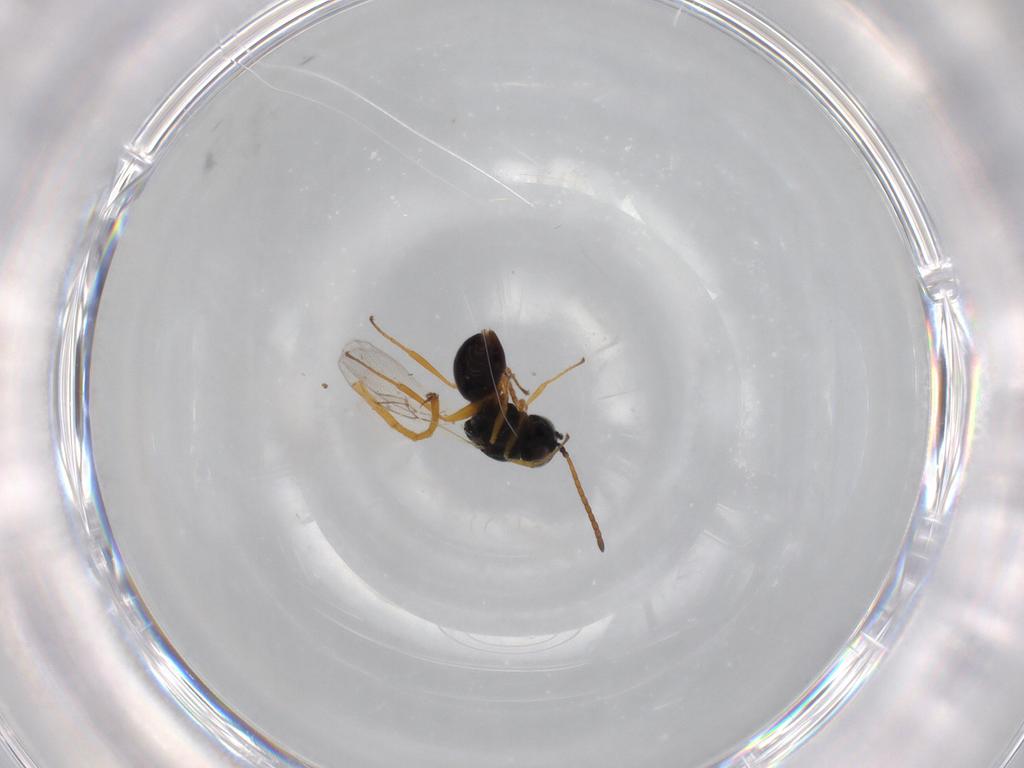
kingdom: Animalia
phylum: Arthropoda
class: Insecta
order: Hymenoptera
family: Figitidae
